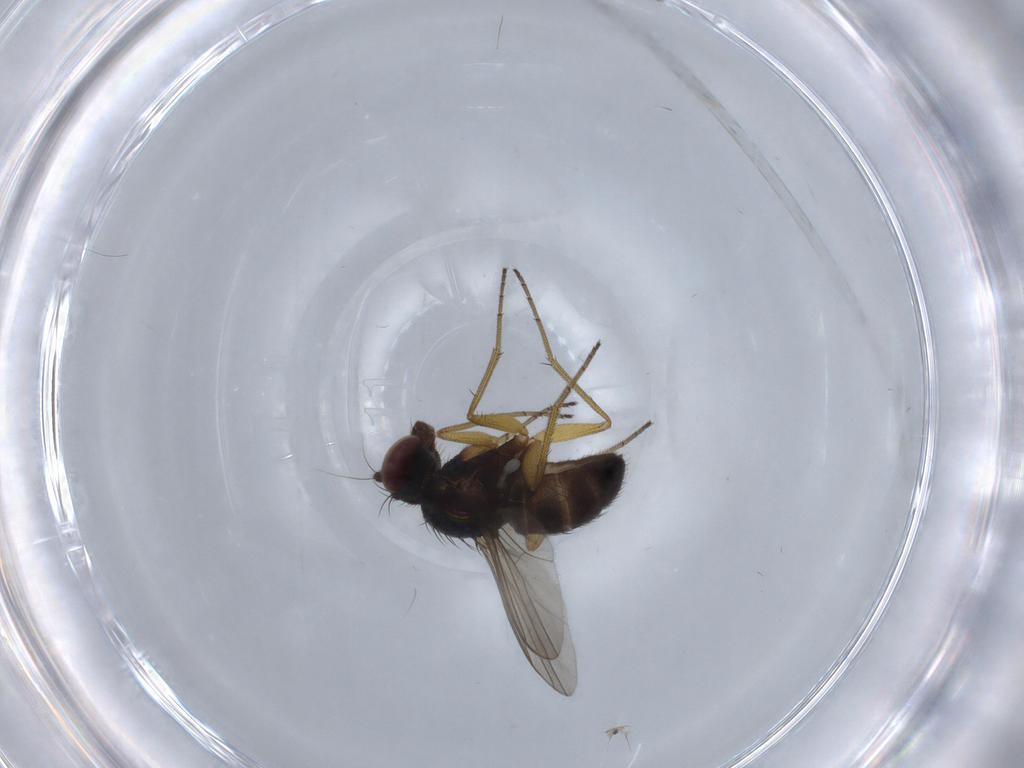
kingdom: Animalia
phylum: Arthropoda
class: Insecta
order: Diptera
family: Dolichopodidae
